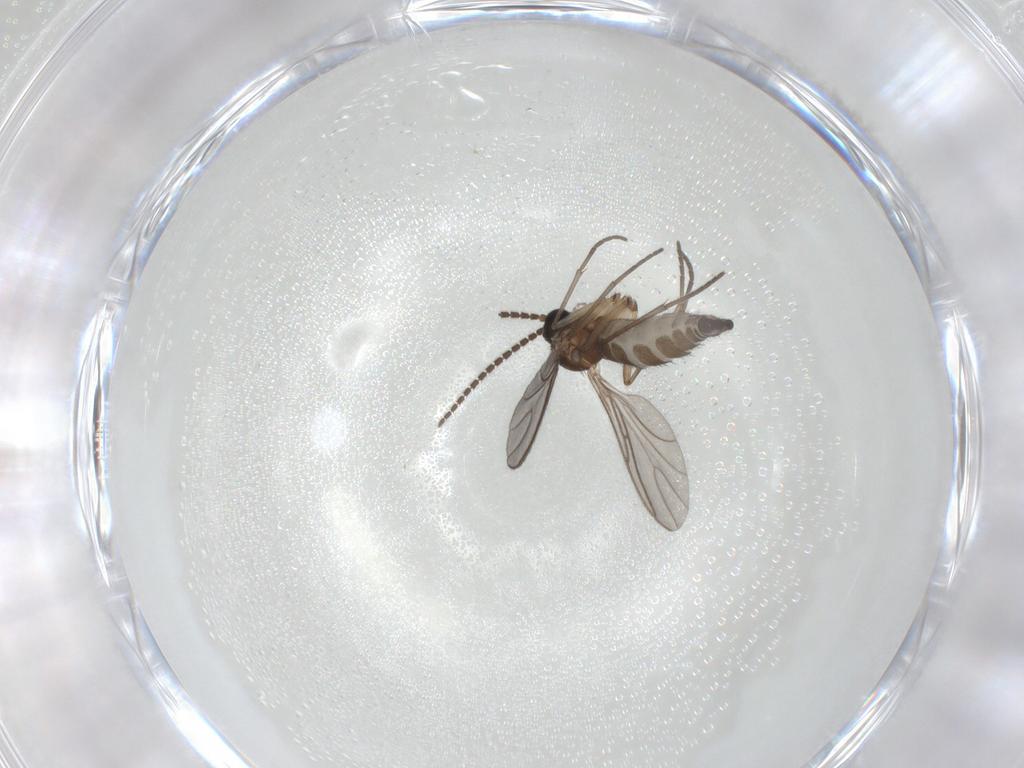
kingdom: Animalia
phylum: Arthropoda
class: Insecta
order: Diptera
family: Sciaridae
